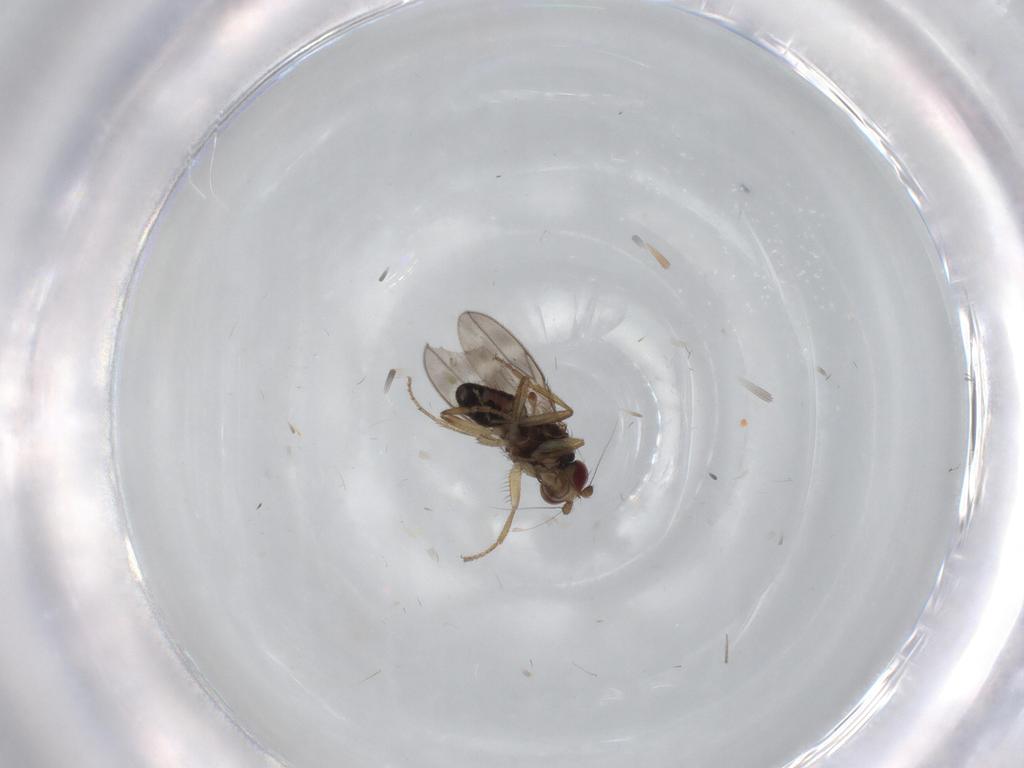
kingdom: Animalia
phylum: Arthropoda
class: Insecta
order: Diptera
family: Sphaeroceridae
